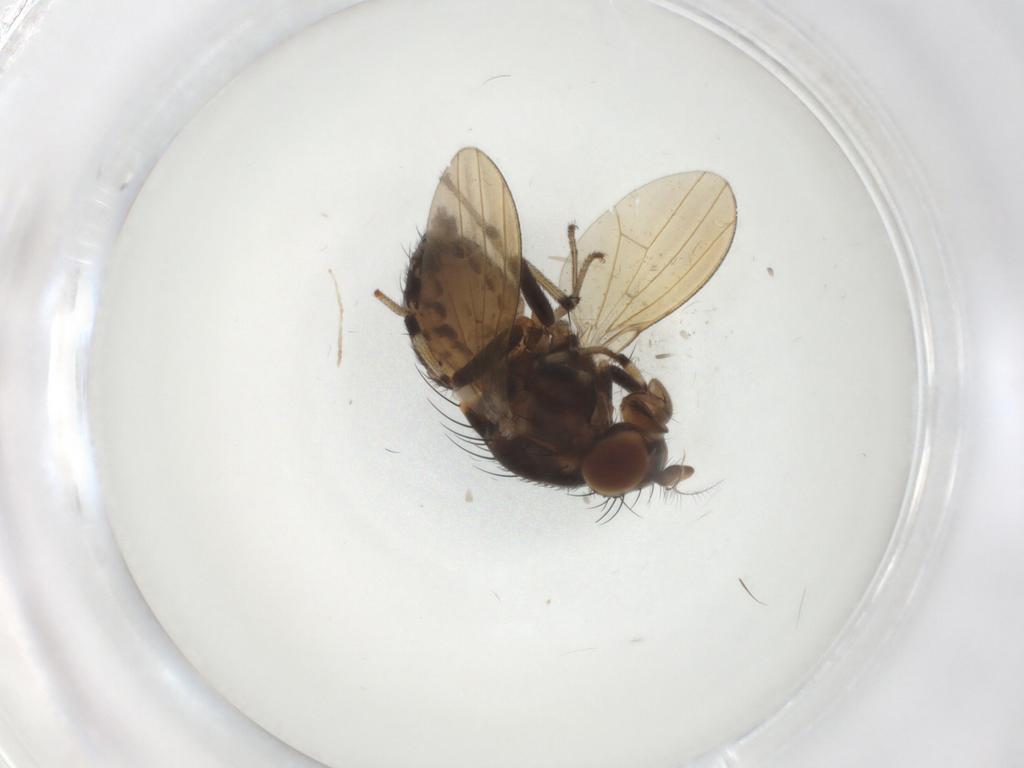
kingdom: Animalia
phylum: Arthropoda
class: Insecta
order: Diptera
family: Cecidomyiidae
